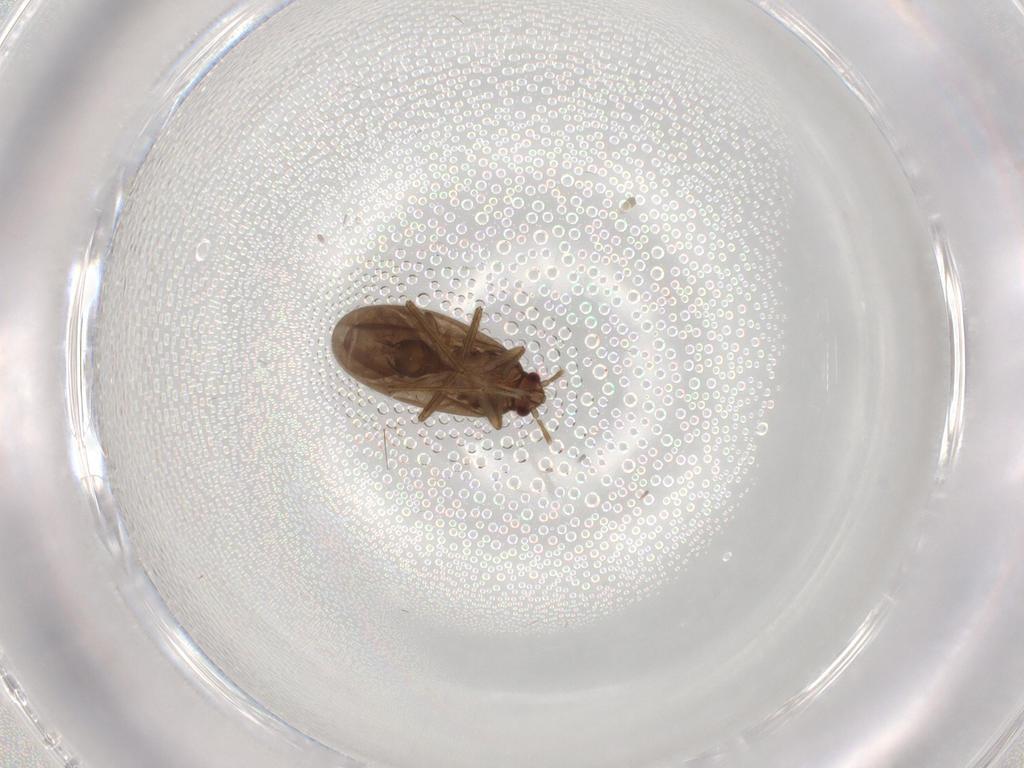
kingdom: Animalia
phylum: Arthropoda
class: Insecta
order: Hemiptera
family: Ceratocombidae
